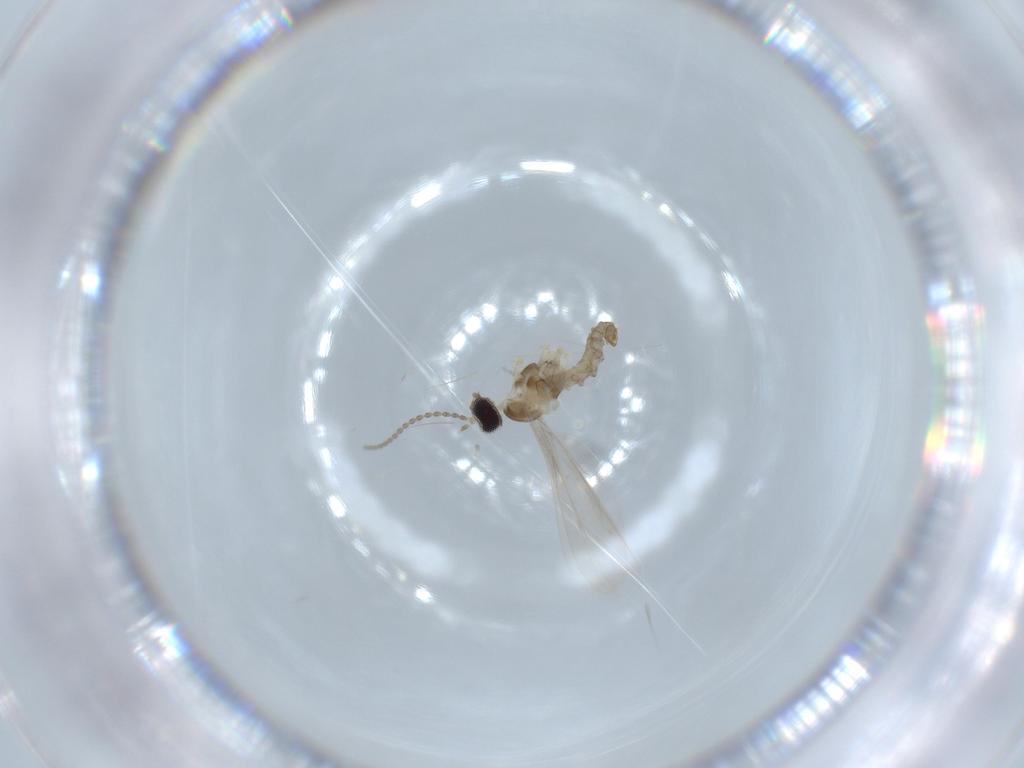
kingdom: Animalia
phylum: Arthropoda
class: Insecta
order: Diptera
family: Cecidomyiidae
